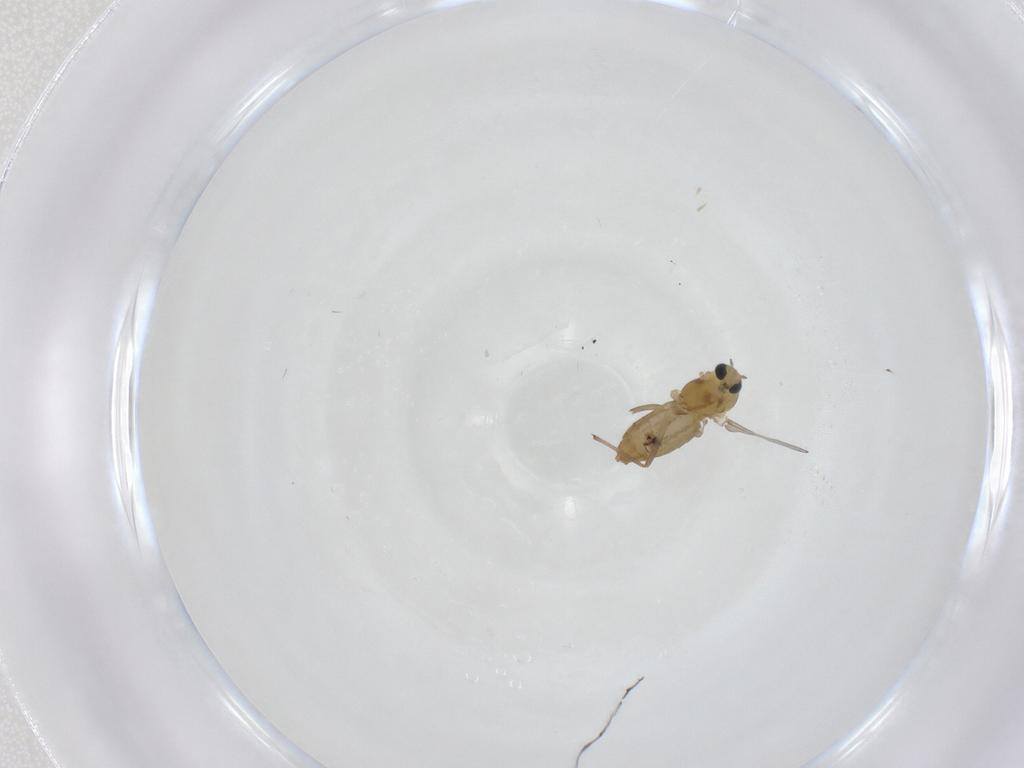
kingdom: Animalia
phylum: Arthropoda
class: Insecta
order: Diptera
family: Chironomidae
